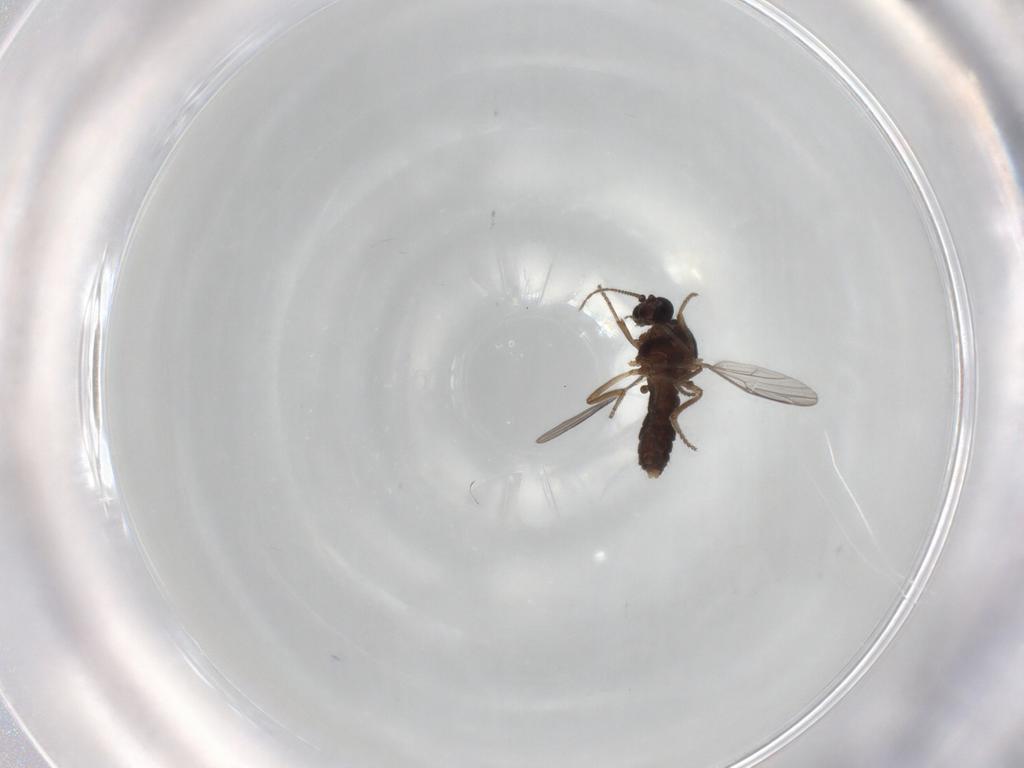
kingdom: Animalia
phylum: Arthropoda
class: Insecta
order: Diptera
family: Ceratopogonidae
